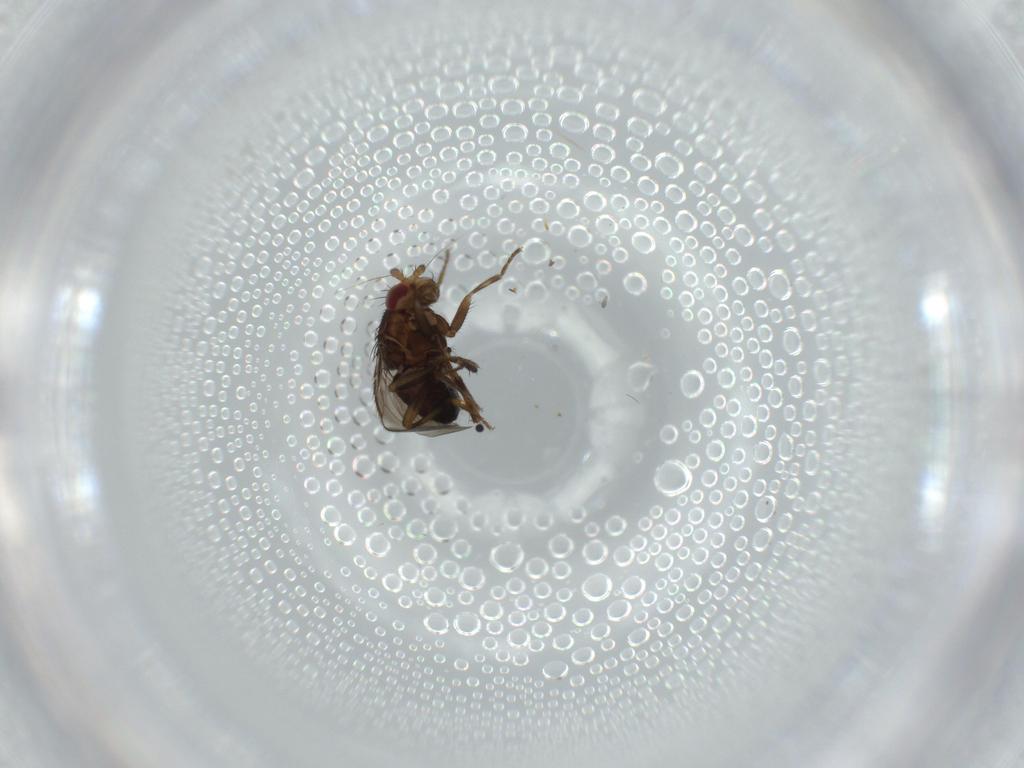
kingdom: Animalia
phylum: Arthropoda
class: Insecta
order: Diptera
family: Sphaeroceridae
